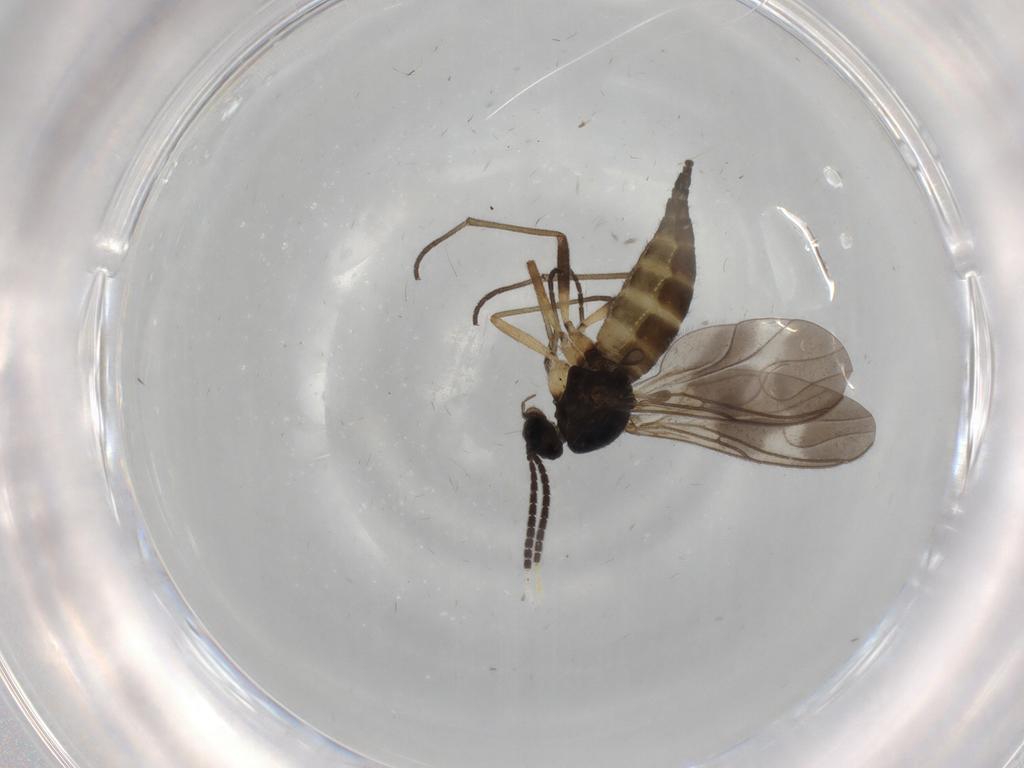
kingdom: Animalia
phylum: Arthropoda
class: Insecta
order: Diptera
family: Sciaridae
